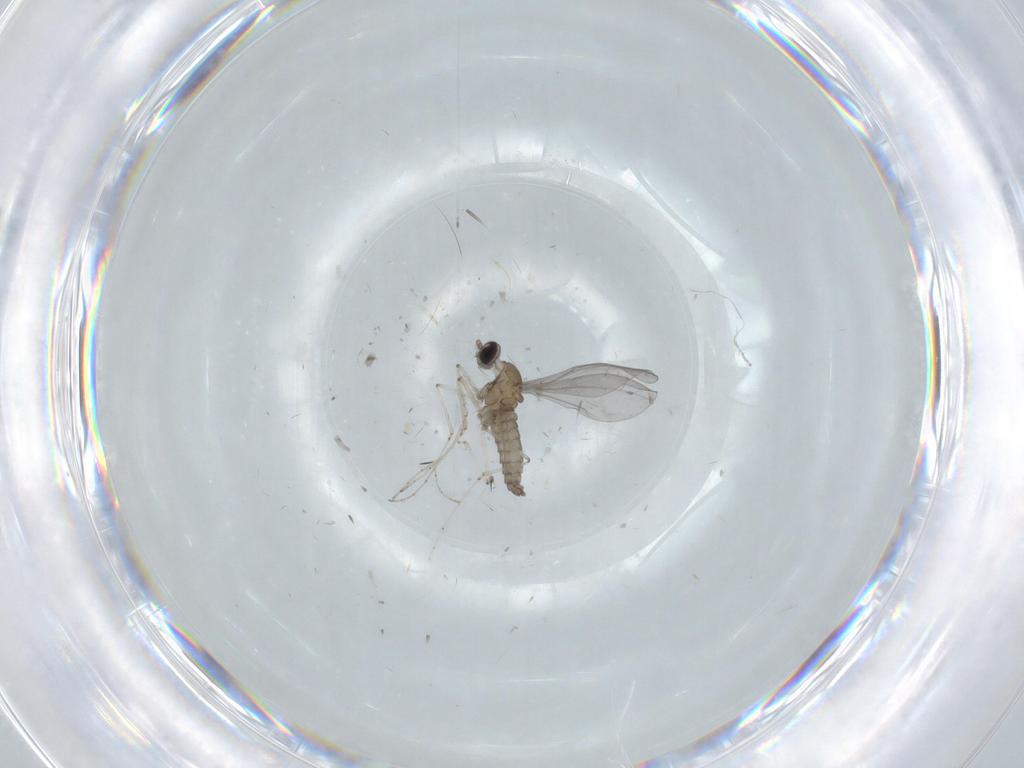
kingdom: Animalia
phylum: Arthropoda
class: Insecta
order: Diptera
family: Cecidomyiidae
